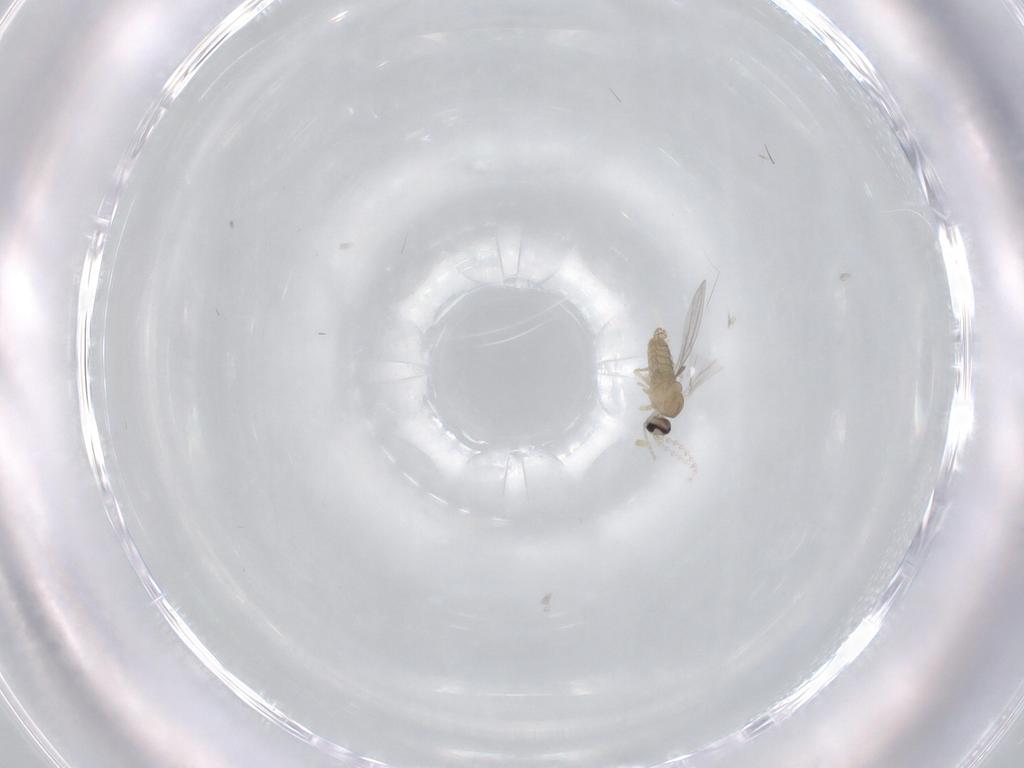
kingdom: Animalia
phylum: Arthropoda
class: Insecta
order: Diptera
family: Cecidomyiidae
